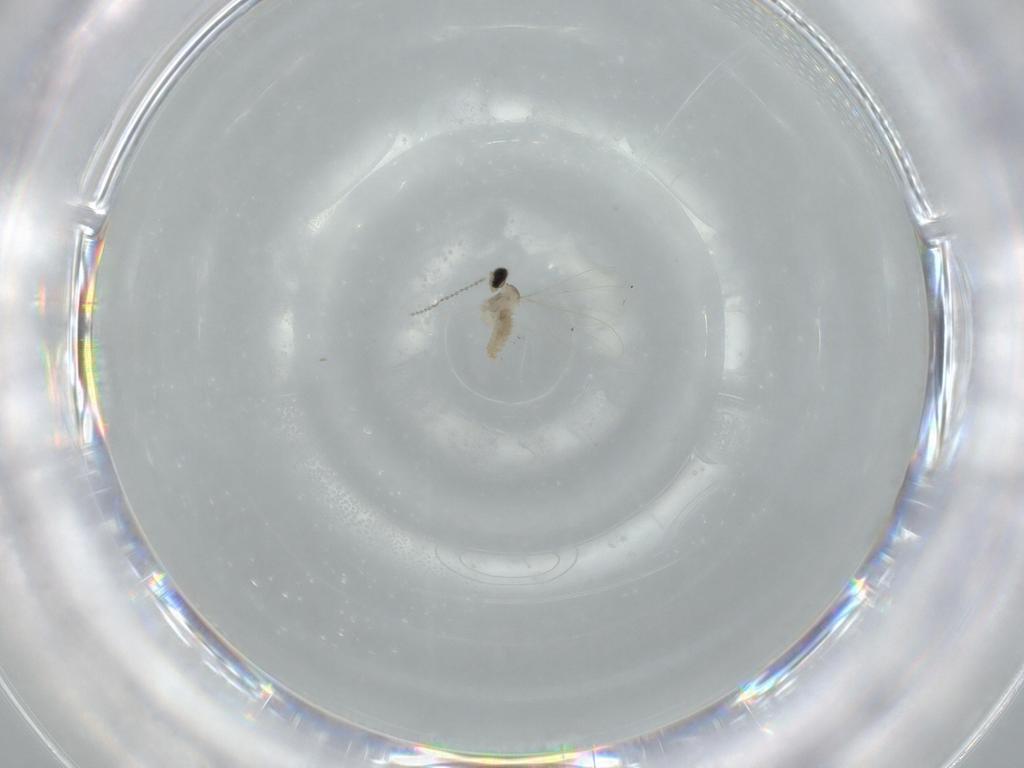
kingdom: Animalia
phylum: Arthropoda
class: Insecta
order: Diptera
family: Cecidomyiidae
